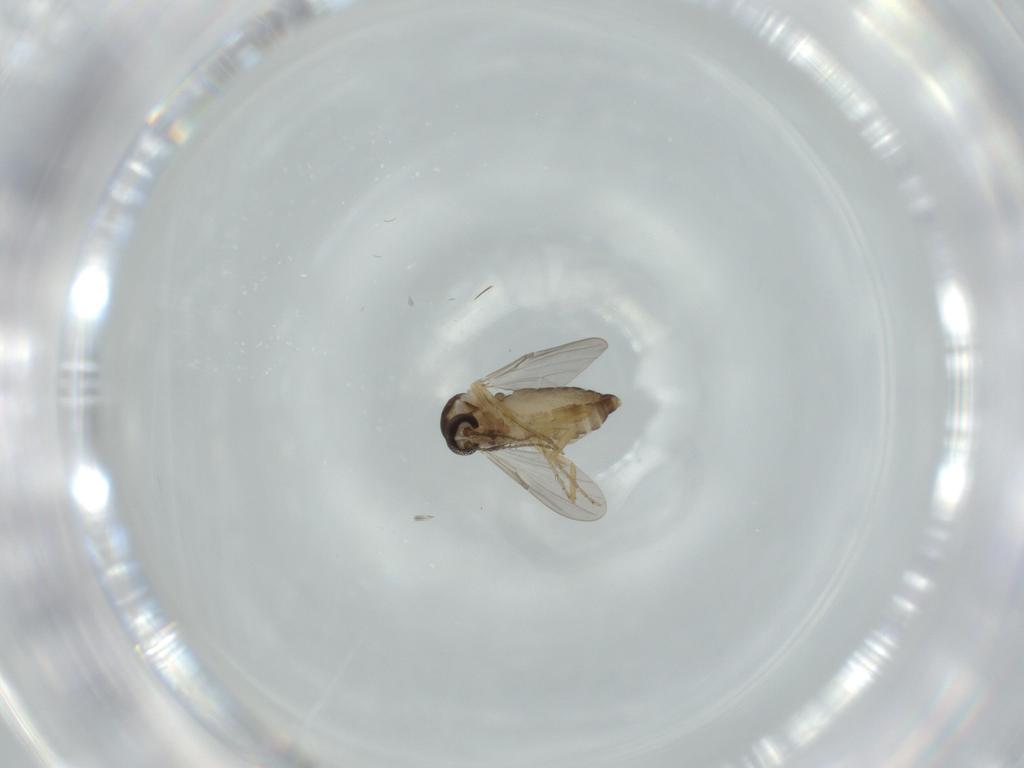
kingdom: Animalia
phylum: Arthropoda
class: Insecta
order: Diptera
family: Ceratopogonidae
